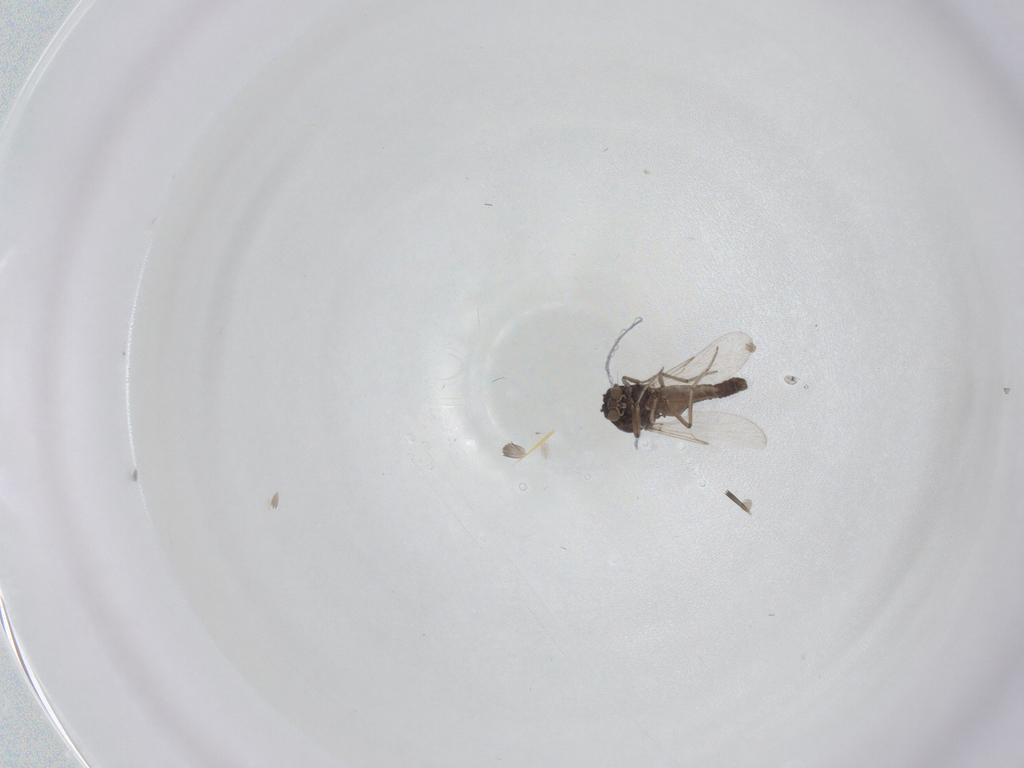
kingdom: Animalia
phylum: Arthropoda
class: Insecta
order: Diptera
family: Ceratopogonidae
